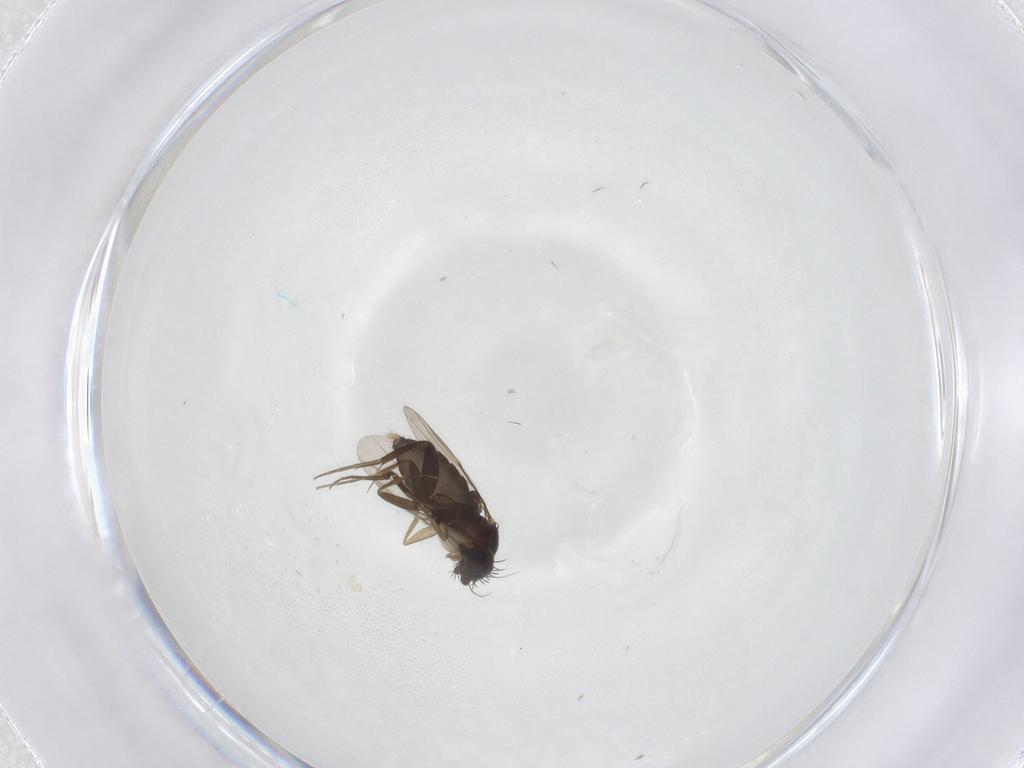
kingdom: Animalia
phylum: Arthropoda
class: Insecta
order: Diptera
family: Phoridae
